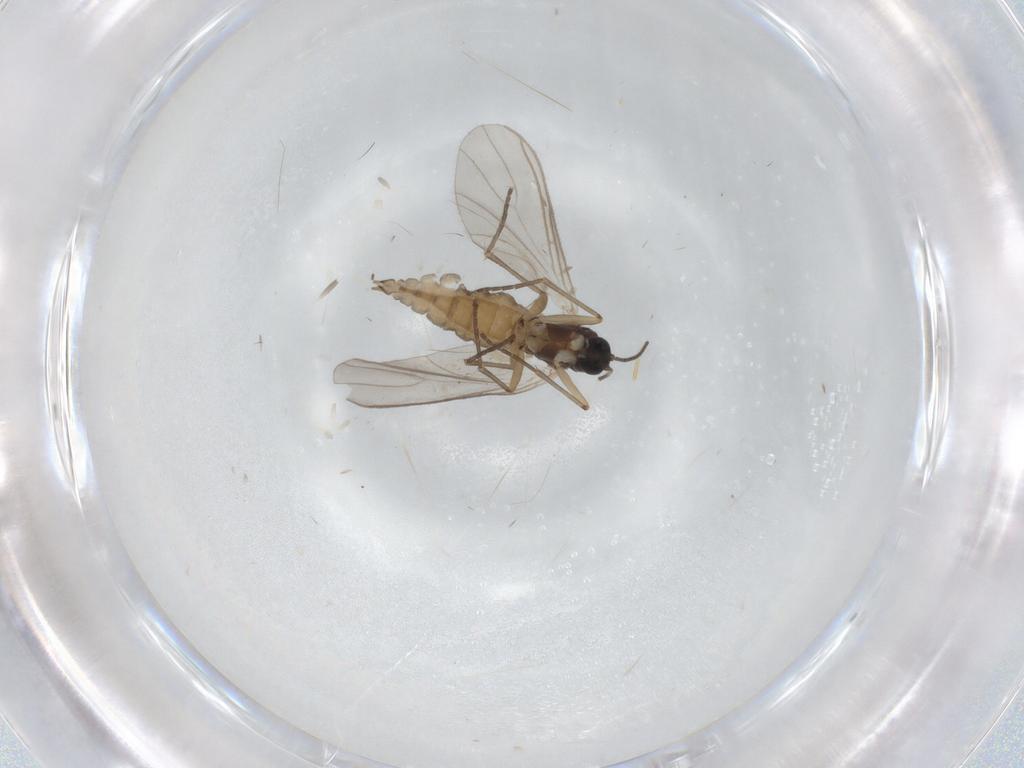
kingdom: Animalia
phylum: Arthropoda
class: Insecta
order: Diptera
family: Sciaridae
